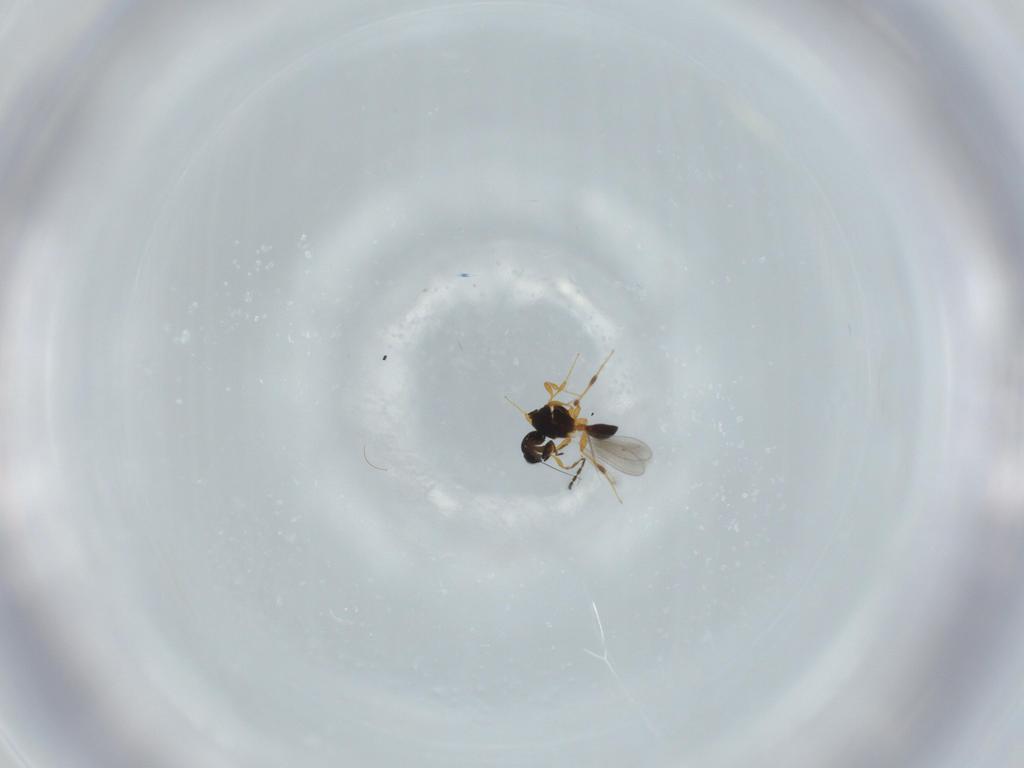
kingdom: Animalia
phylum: Arthropoda
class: Insecta
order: Hymenoptera
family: Platygastridae
